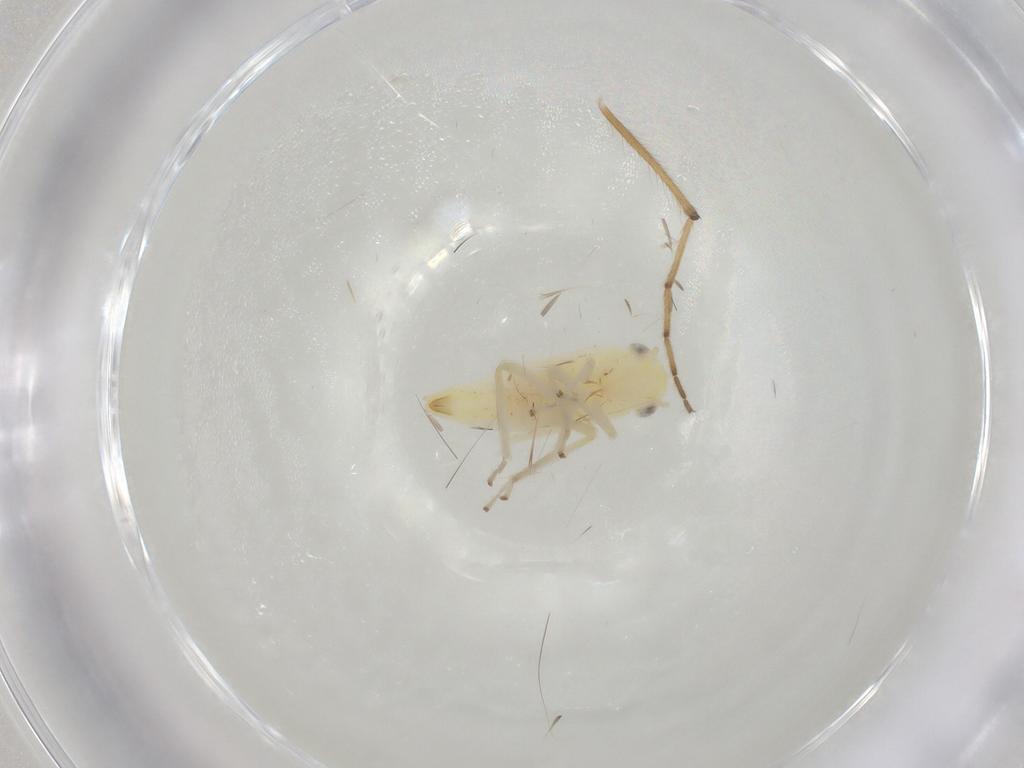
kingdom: Animalia
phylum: Arthropoda
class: Insecta
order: Hemiptera
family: Cicadellidae
